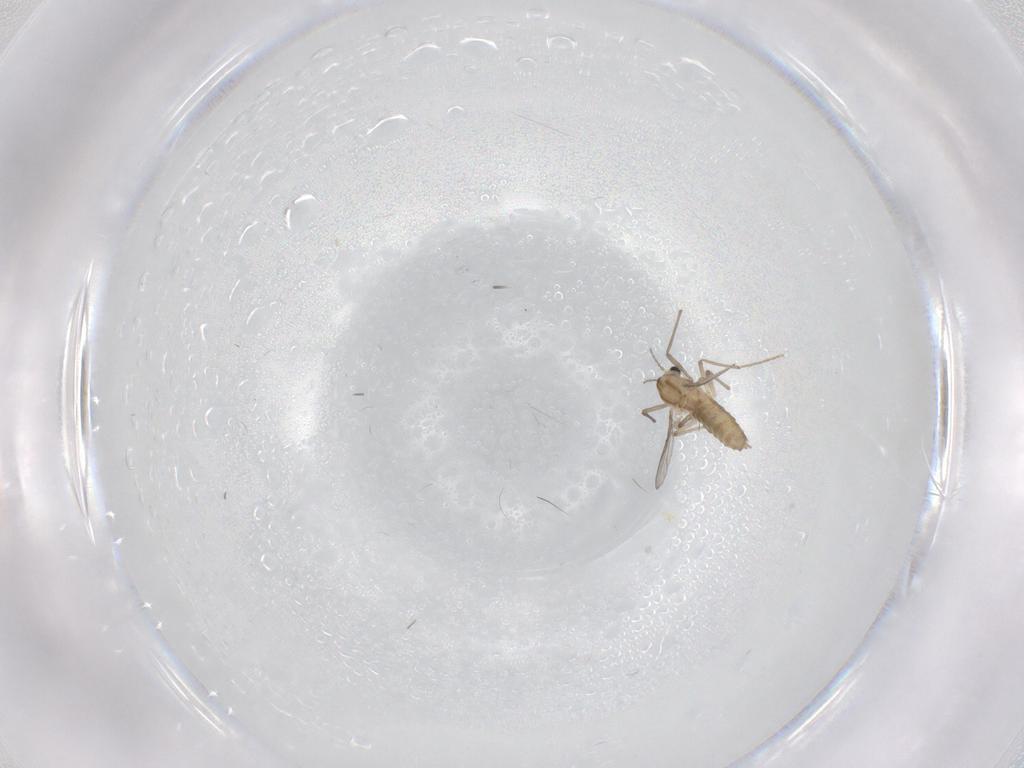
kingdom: Animalia
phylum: Arthropoda
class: Insecta
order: Diptera
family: Chironomidae
